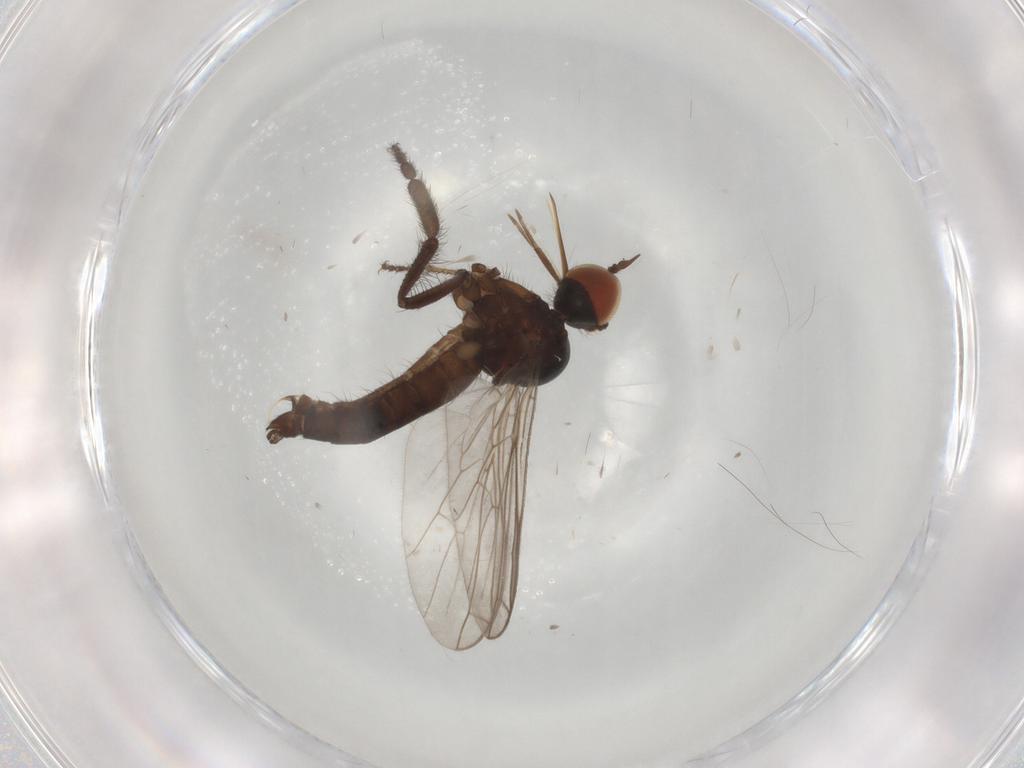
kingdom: Animalia
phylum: Arthropoda
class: Insecta
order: Diptera
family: Empididae
